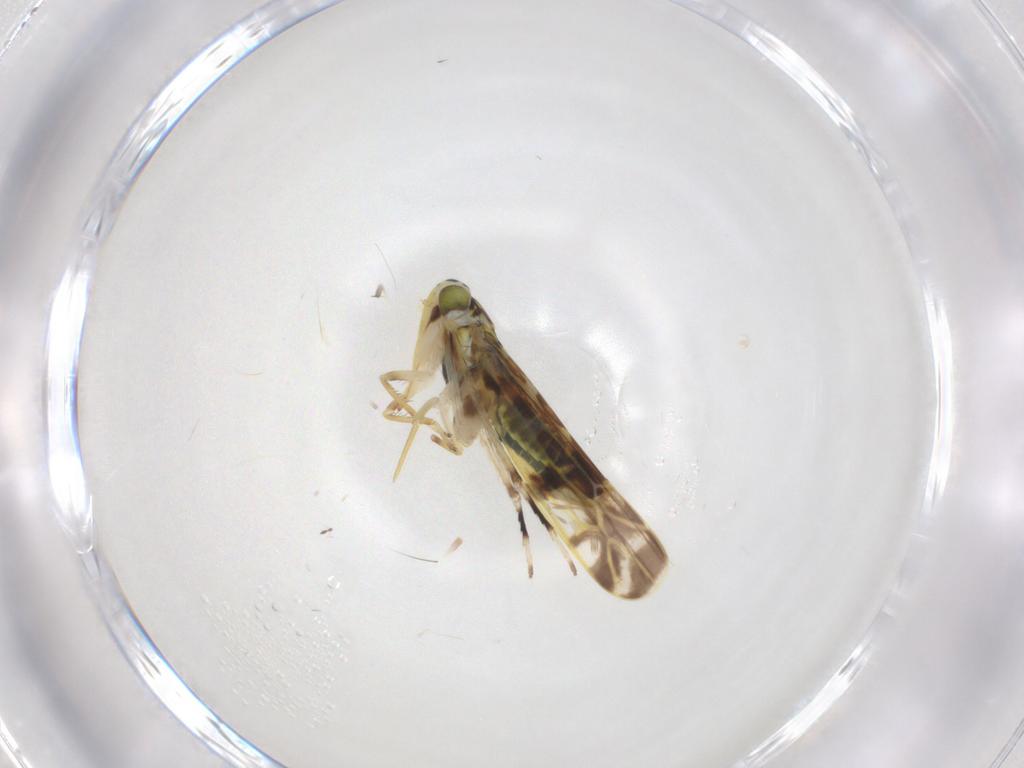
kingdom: Animalia
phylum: Arthropoda
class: Insecta
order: Hemiptera
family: Cicadellidae
